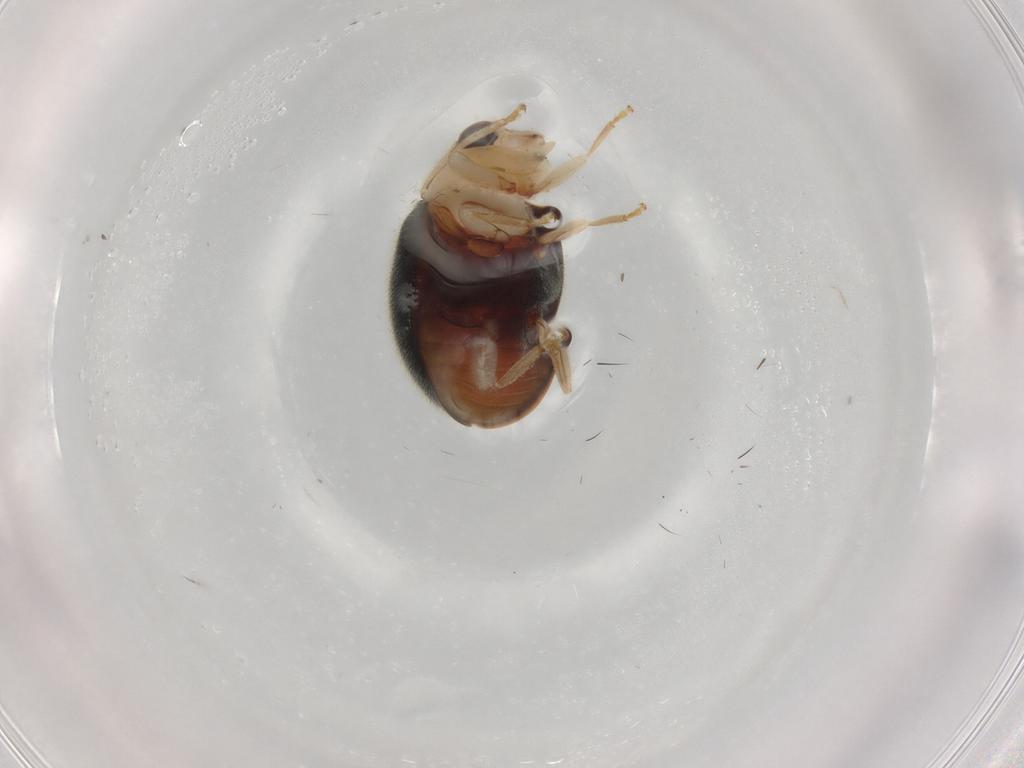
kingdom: Animalia
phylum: Arthropoda
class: Insecta
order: Coleoptera
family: Coccinellidae
